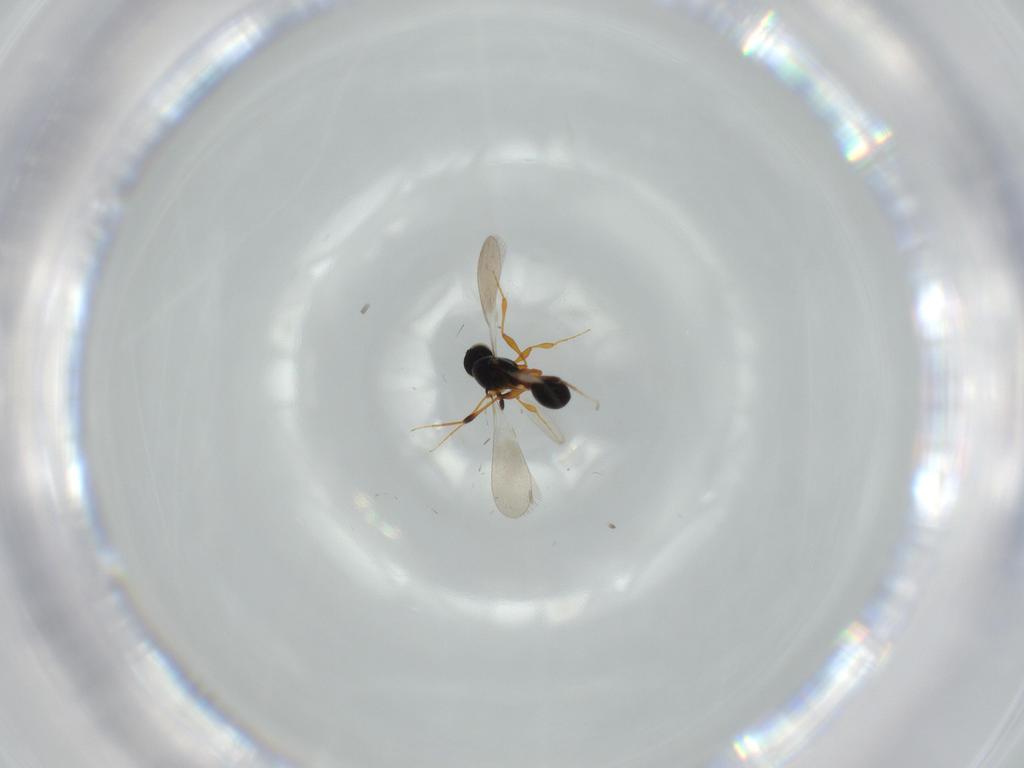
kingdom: Animalia
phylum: Arthropoda
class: Insecta
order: Hymenoptera
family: Platygastridae
